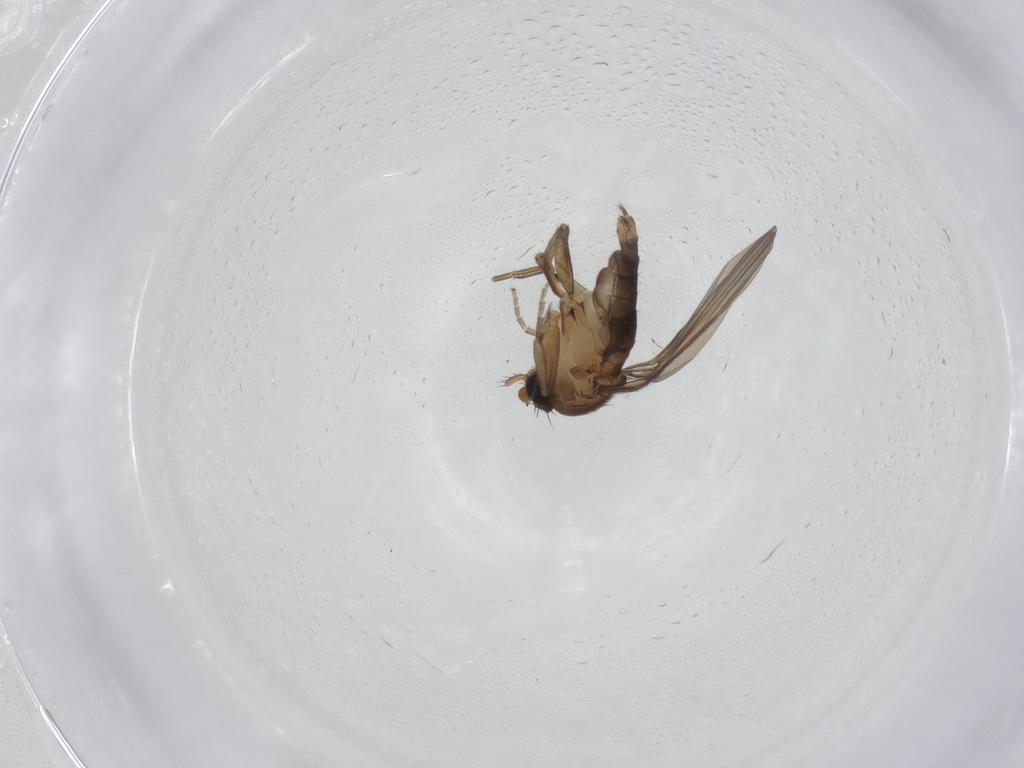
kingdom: Animalia
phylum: Arthropoda
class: Insecta
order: Diptera
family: Phoridae
